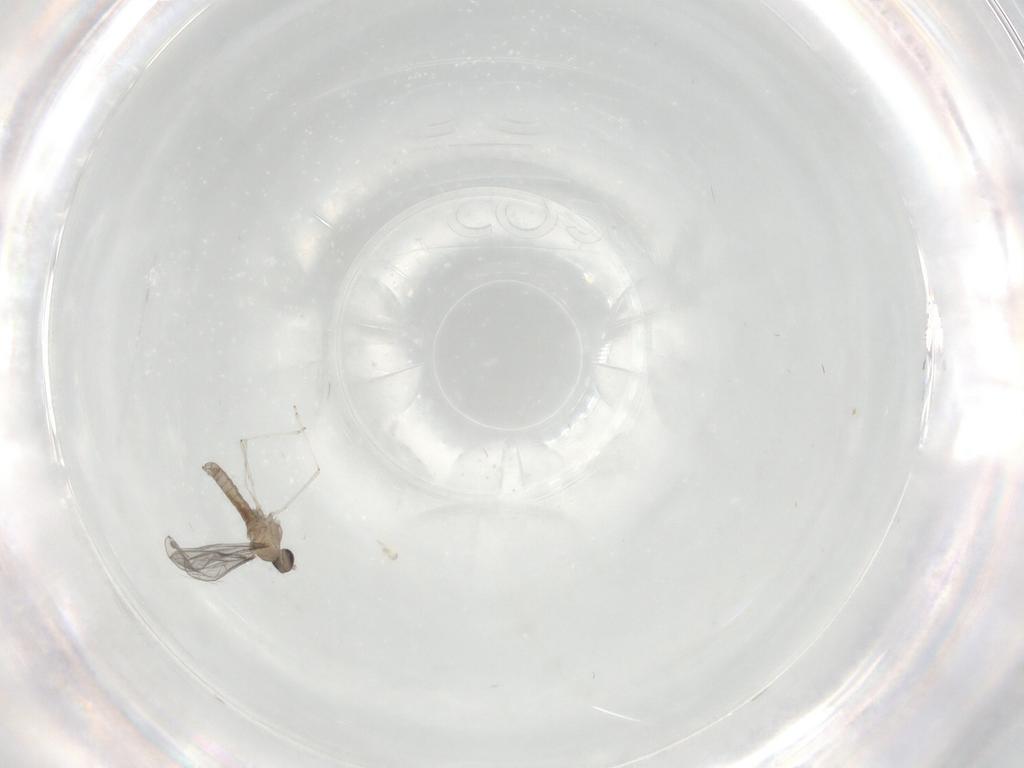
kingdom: Animalia
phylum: Arthropoda
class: Insecta
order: Diptera
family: Cecidomyiidae
